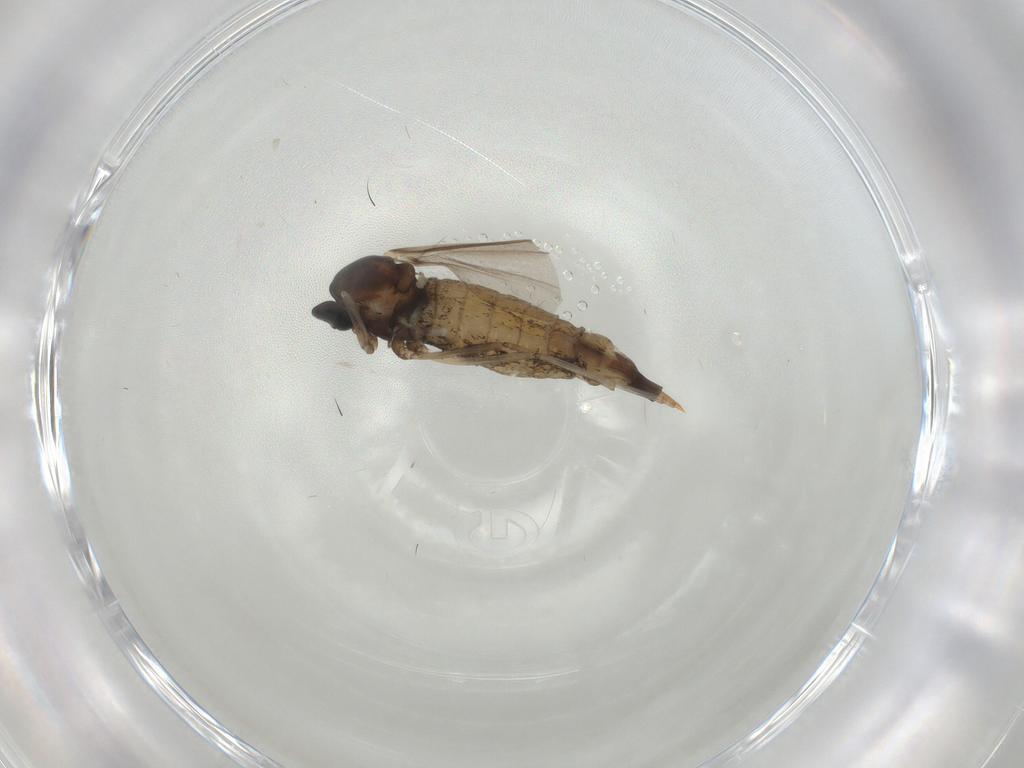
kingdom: Animalia
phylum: Arthropoda
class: Insecta
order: Diptera
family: Cecidomyiidae
